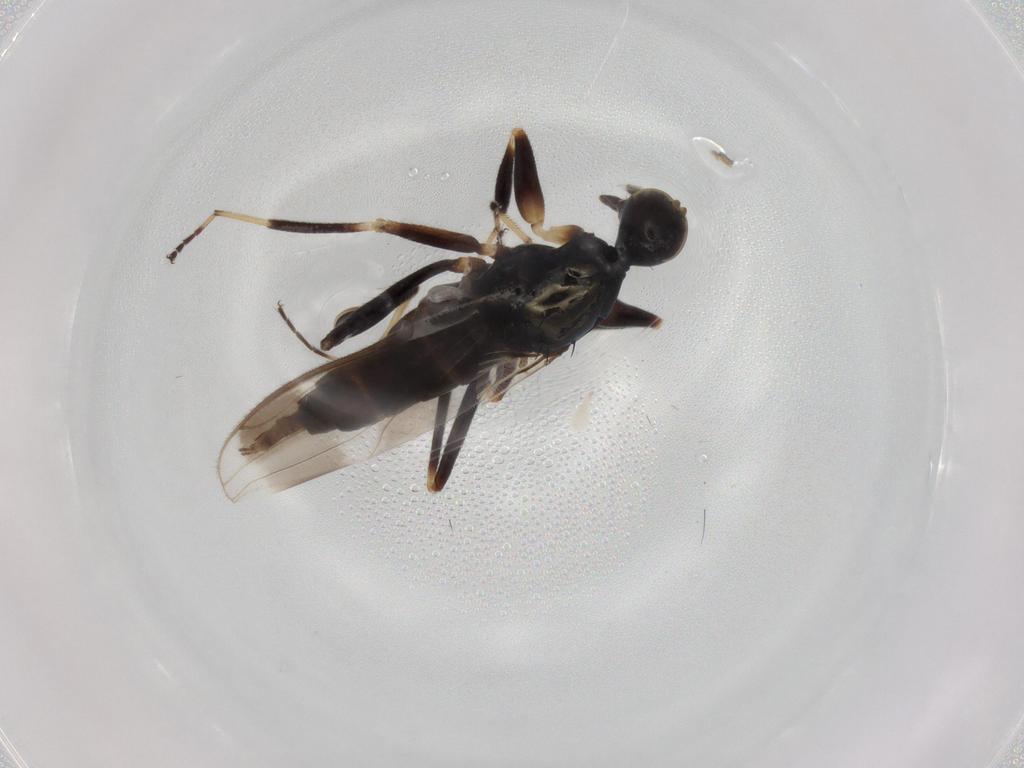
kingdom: Animalia
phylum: Arthropoda
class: Insecta
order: Diptera
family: Hybotidae
